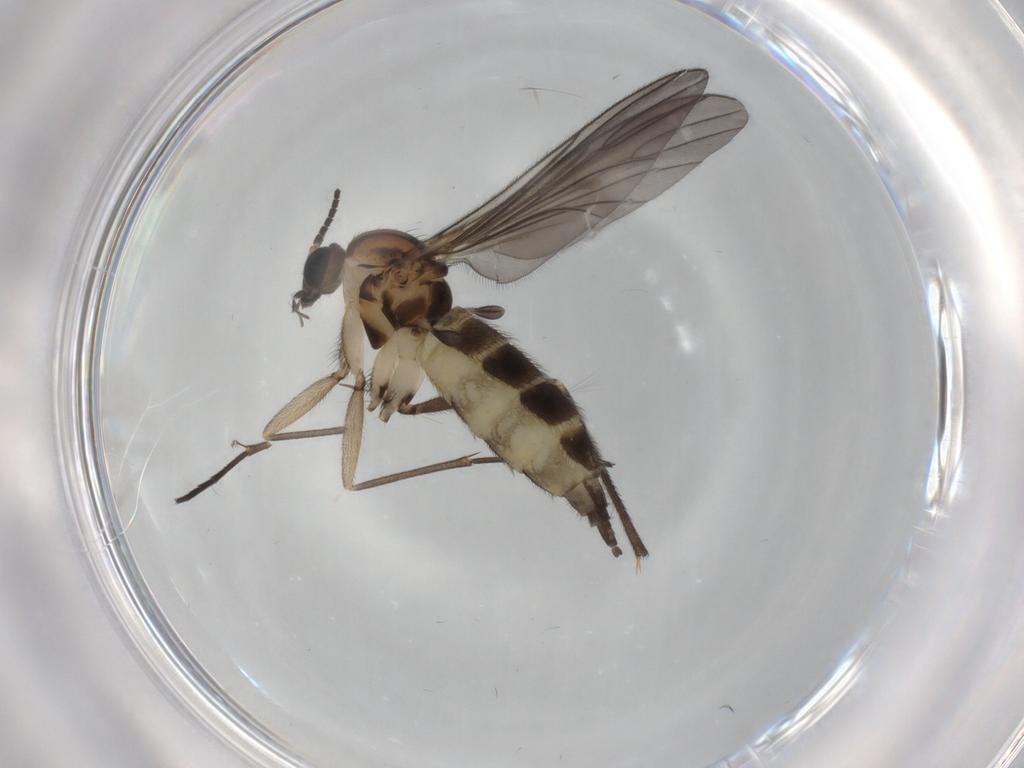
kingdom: Animalia
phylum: Arthropoda
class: Insecta
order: Diptera
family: Sciaridae
